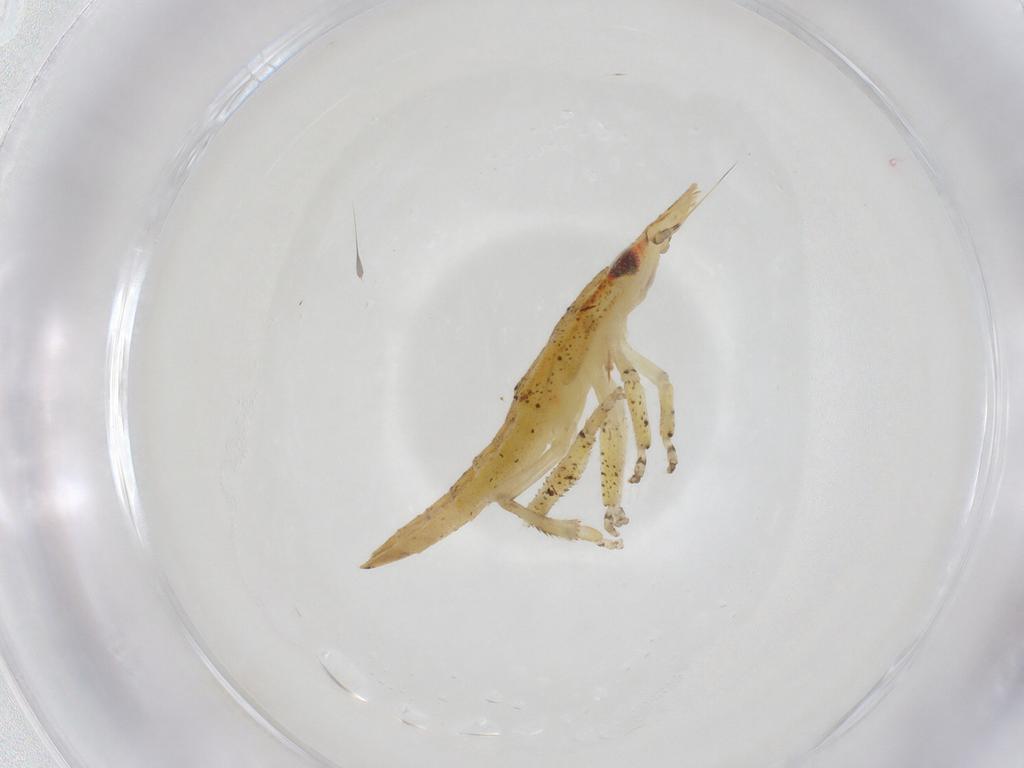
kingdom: Animalia
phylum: Arthropoda
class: Insecta
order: Hemiptera
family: Cicadellidae
